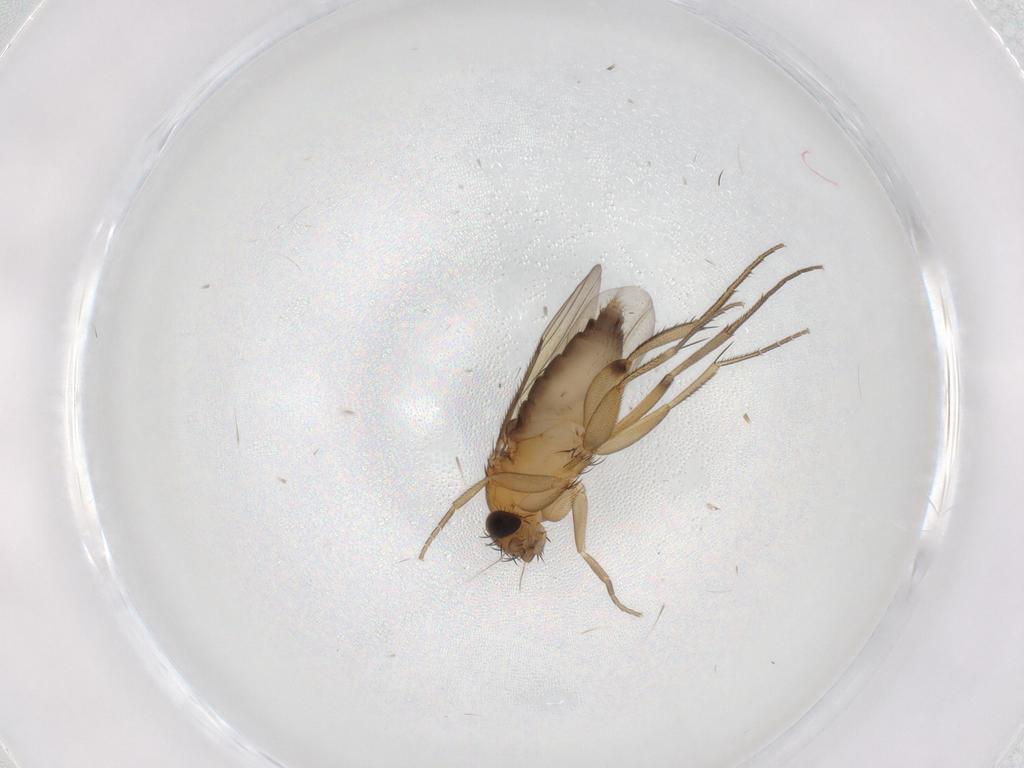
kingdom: Animalia
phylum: Arthropoda
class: Insecta
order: Diptera
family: Phoridae
